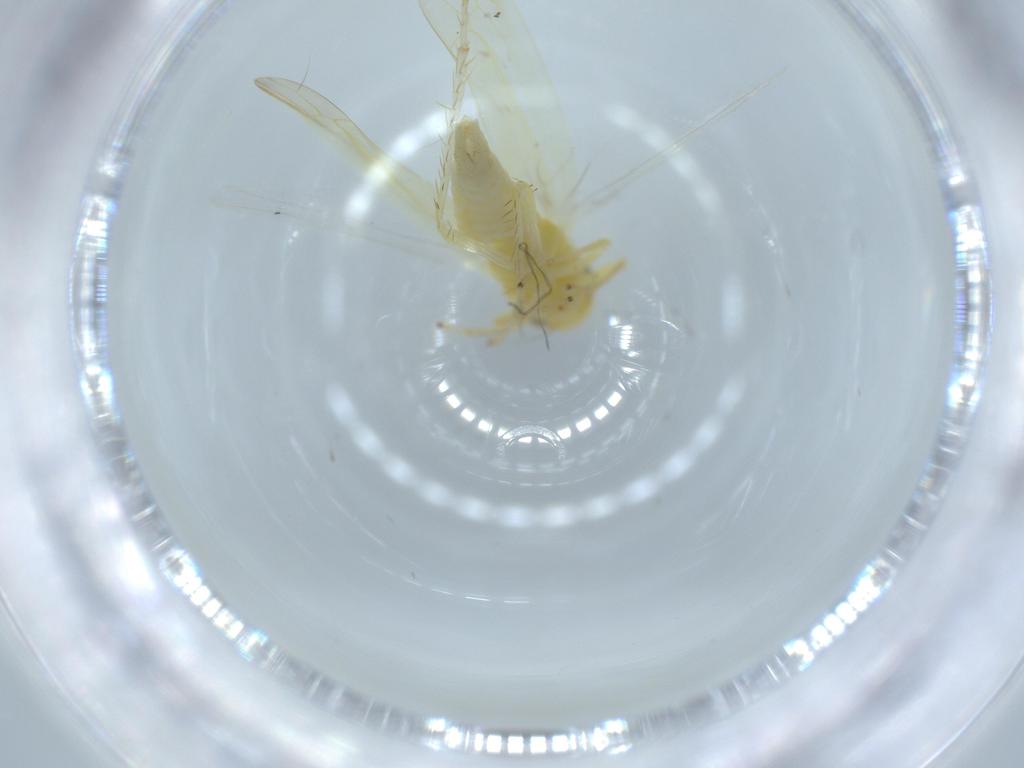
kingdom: Animalia
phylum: Arthropoda
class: Insecta
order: Hemiptera
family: Cicadellidae
